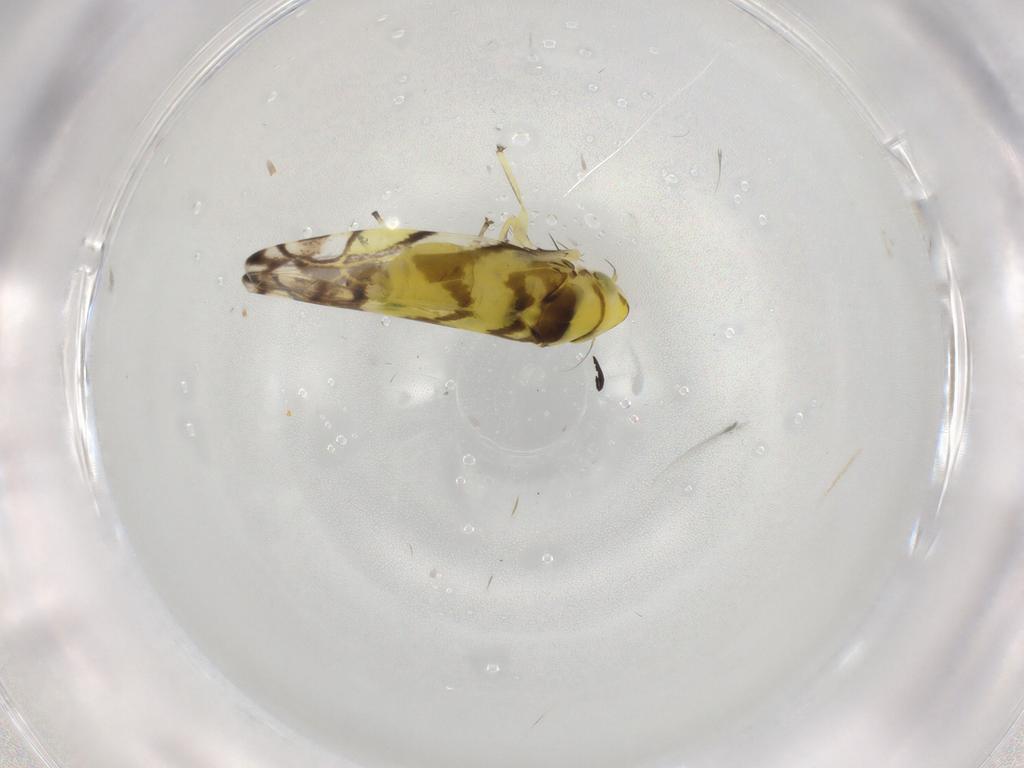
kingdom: Animalia
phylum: Arthropoda
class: Insecta
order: Hemiptera
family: Cicadellidae
